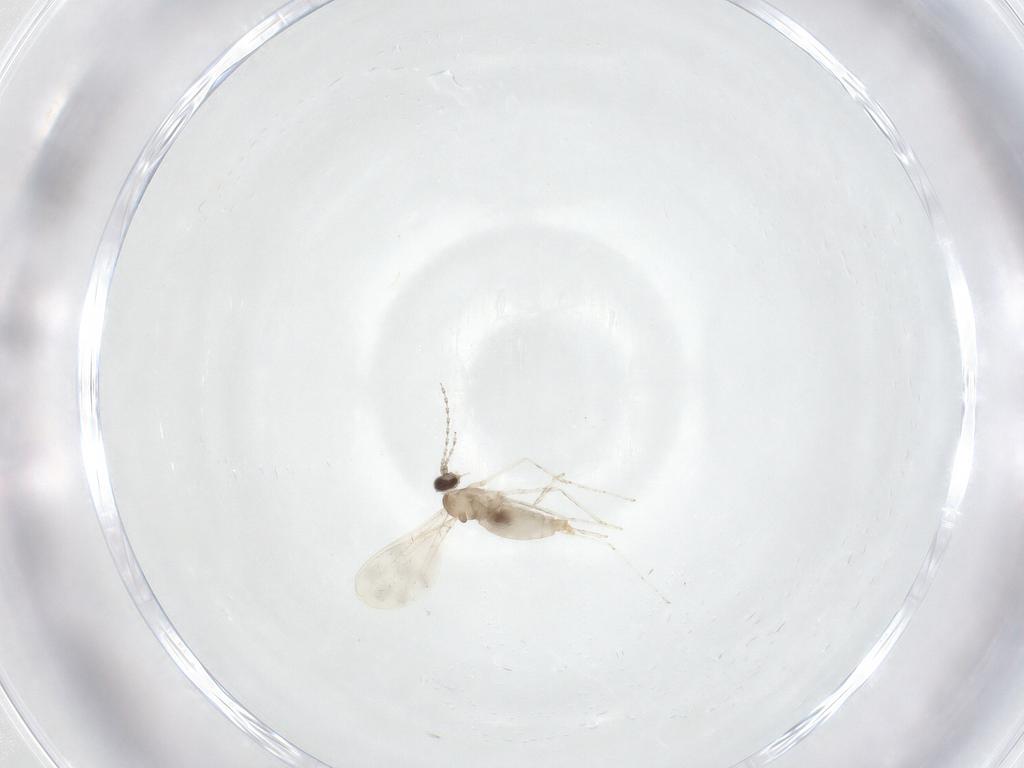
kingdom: Animalia
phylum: Arthropoda
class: Insecta
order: Diptera
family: Cecidomyiidae
